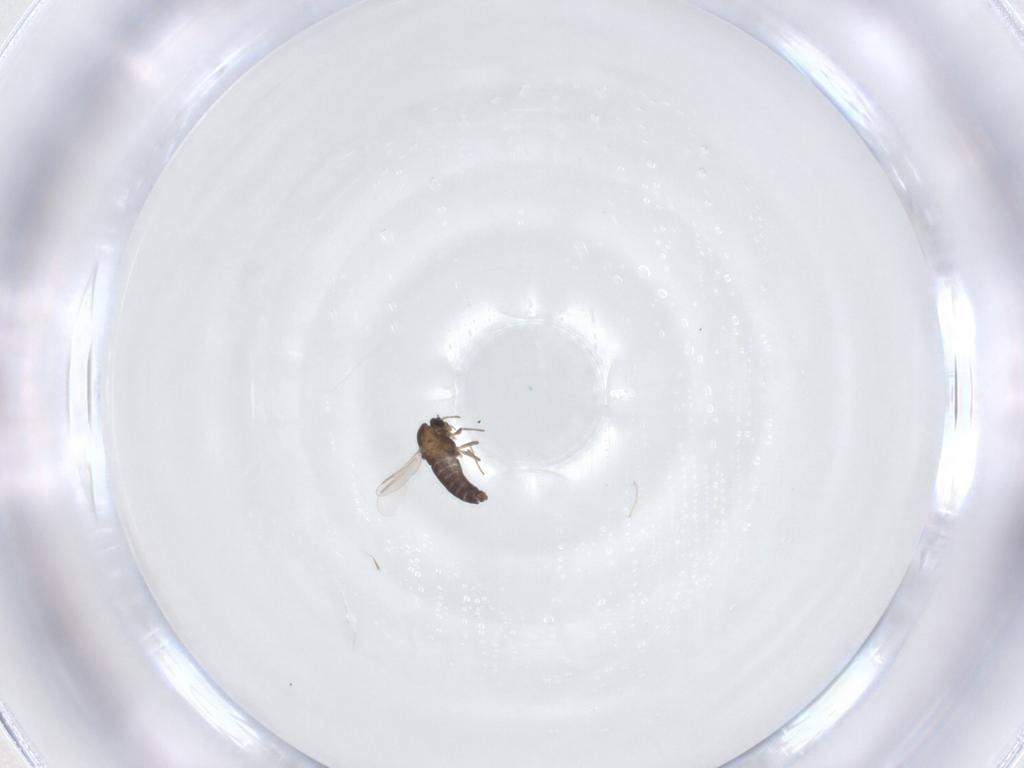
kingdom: Animalia
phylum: Arthropoda
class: Insecta
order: Diptera
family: Chironomidae
